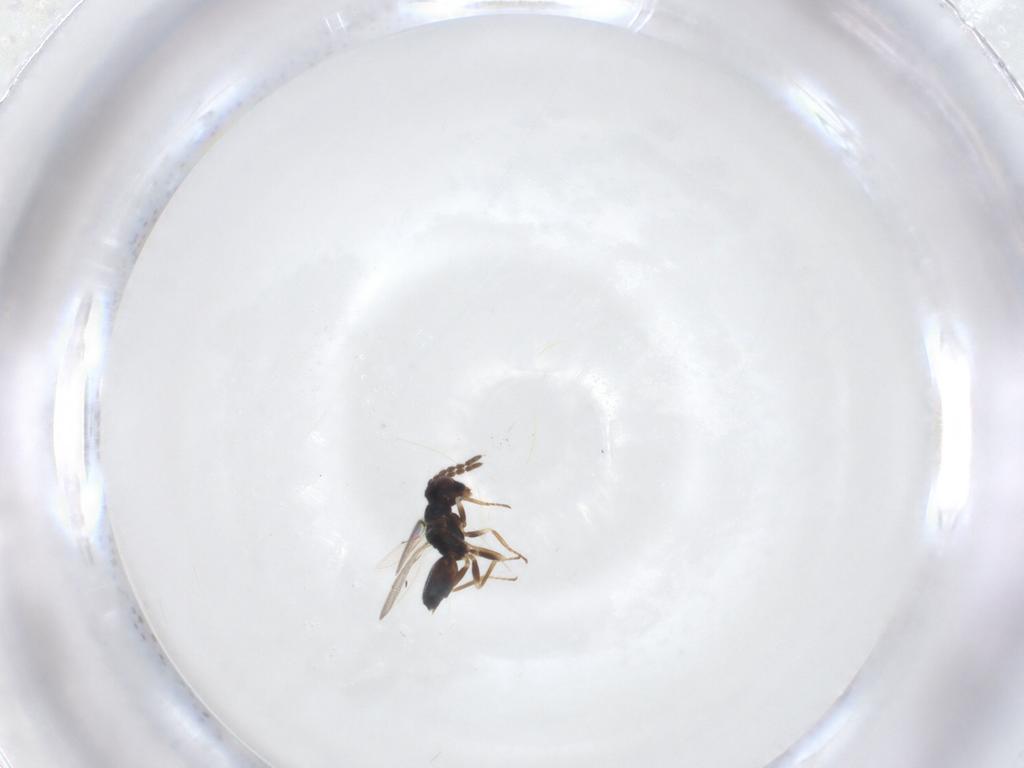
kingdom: Animalia
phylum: Arthropoda
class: Insecta
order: Hymenoptera
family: Eulophidae
